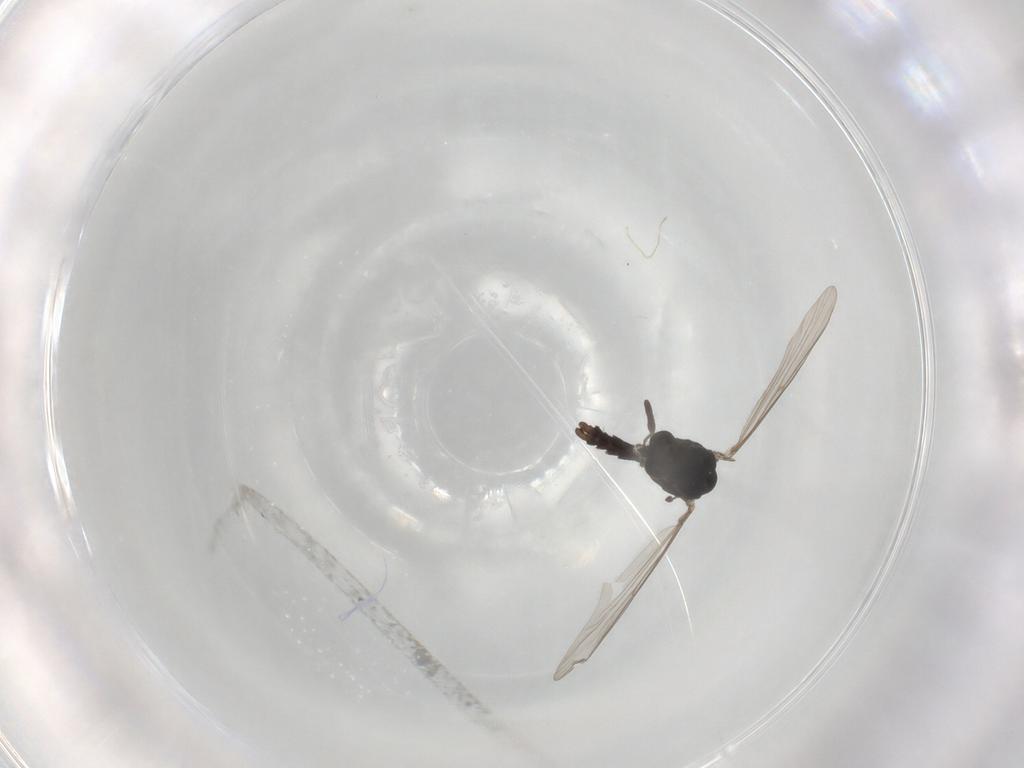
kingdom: Animalia
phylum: Arthropoda
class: Insecta
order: Diptera
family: Chironomidae
